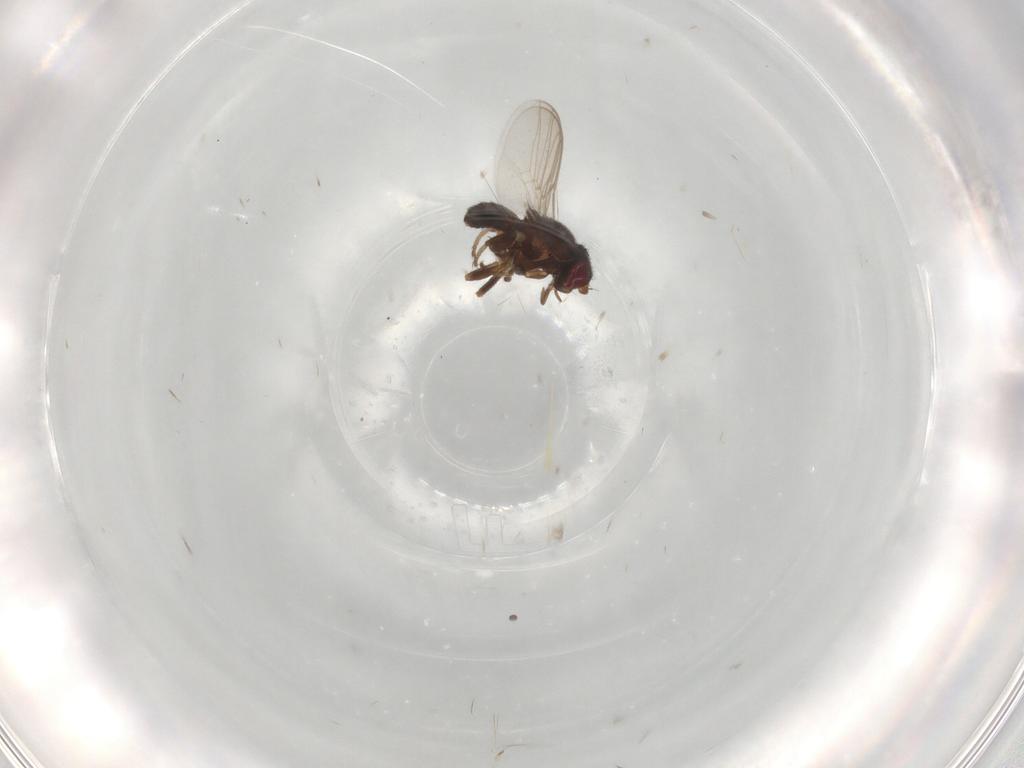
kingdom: Animalia
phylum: Arthropoda
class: Insecta
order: Diptera
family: Chloropidae
